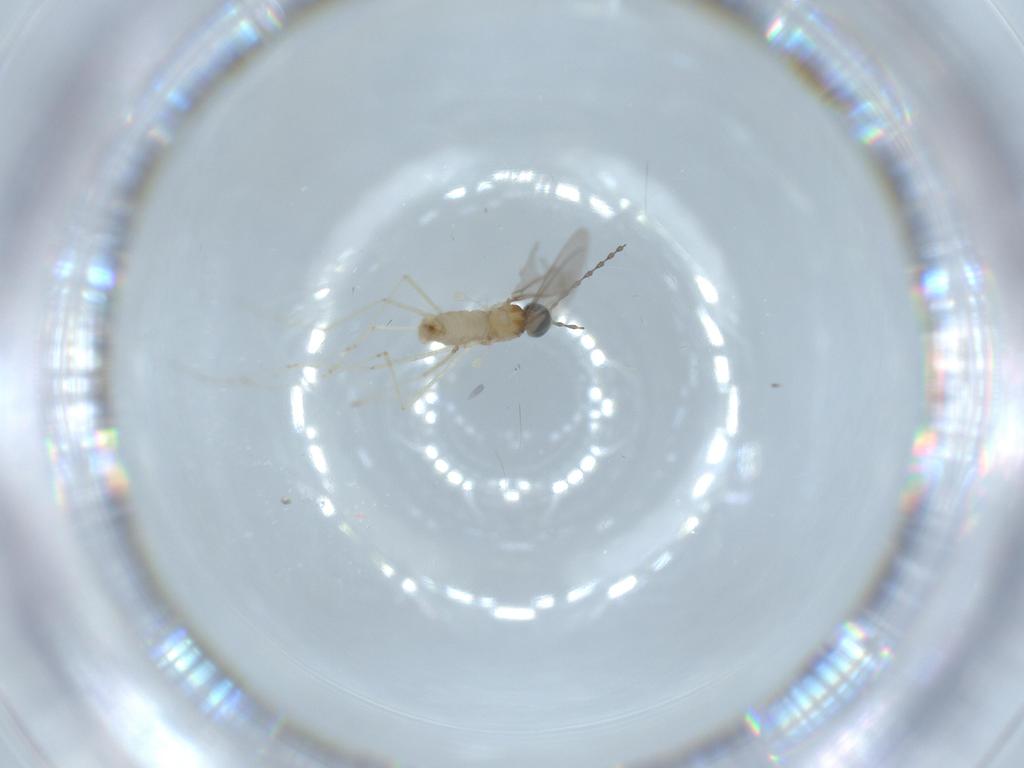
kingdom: Animalia
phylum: Arthropoda
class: Insecta
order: Diptera
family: Cecidomyiidae
